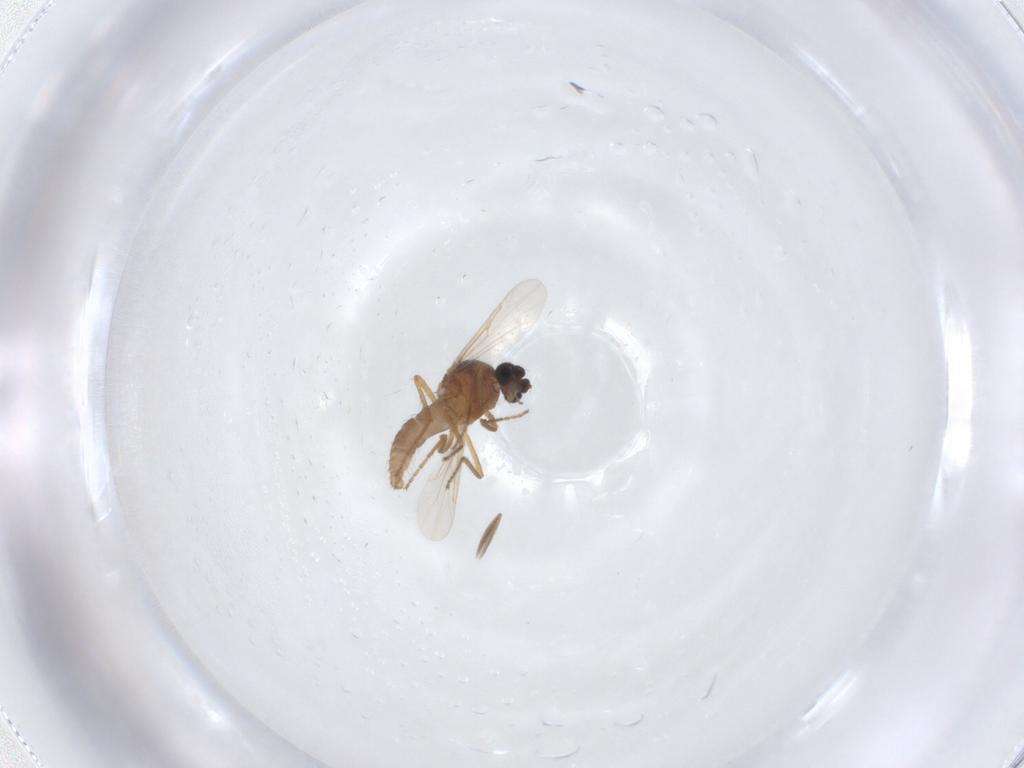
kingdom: Animalia
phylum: Arthropoda
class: Insecta
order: Diptera
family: Ceratopogonidae
